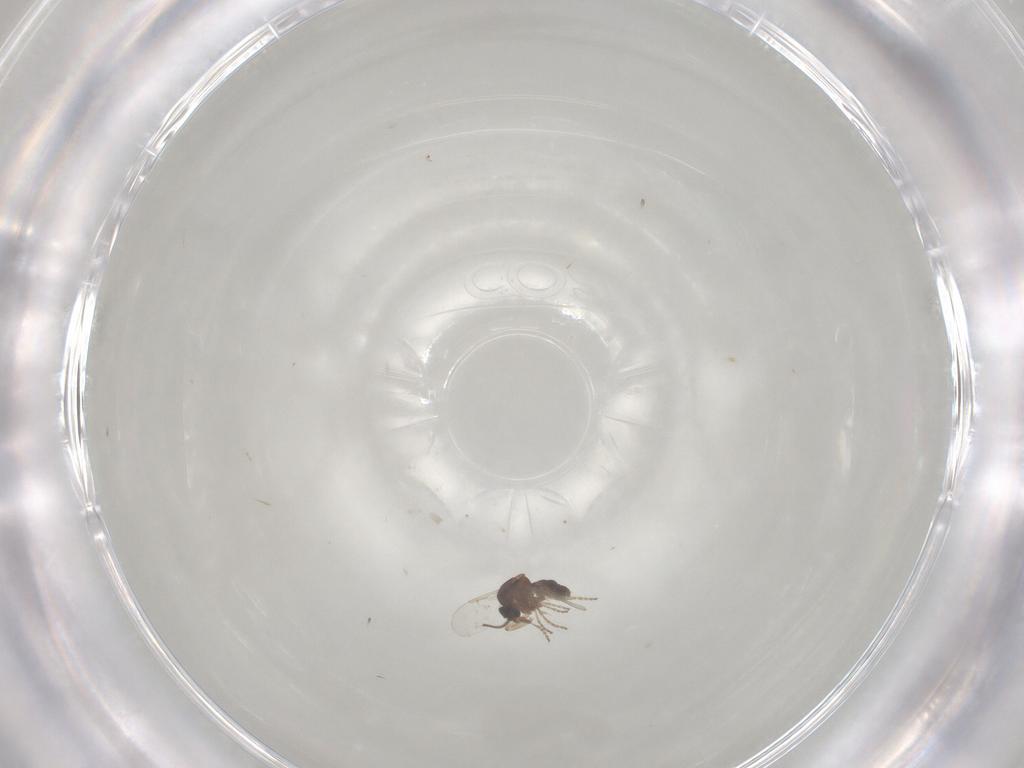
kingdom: Animalia
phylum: Arthropoda
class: Insecta
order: Diptera
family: Ceratopogonidae
